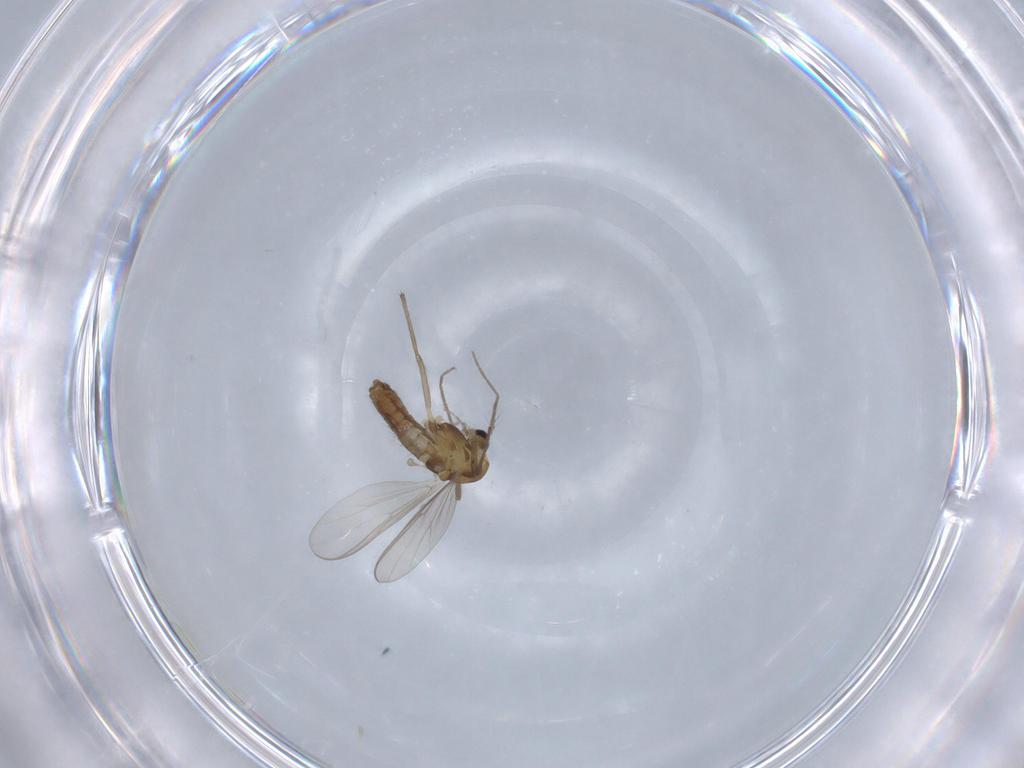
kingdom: Animalia
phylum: Arthropoda
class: Insecta
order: Diptera
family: Chironomidae
